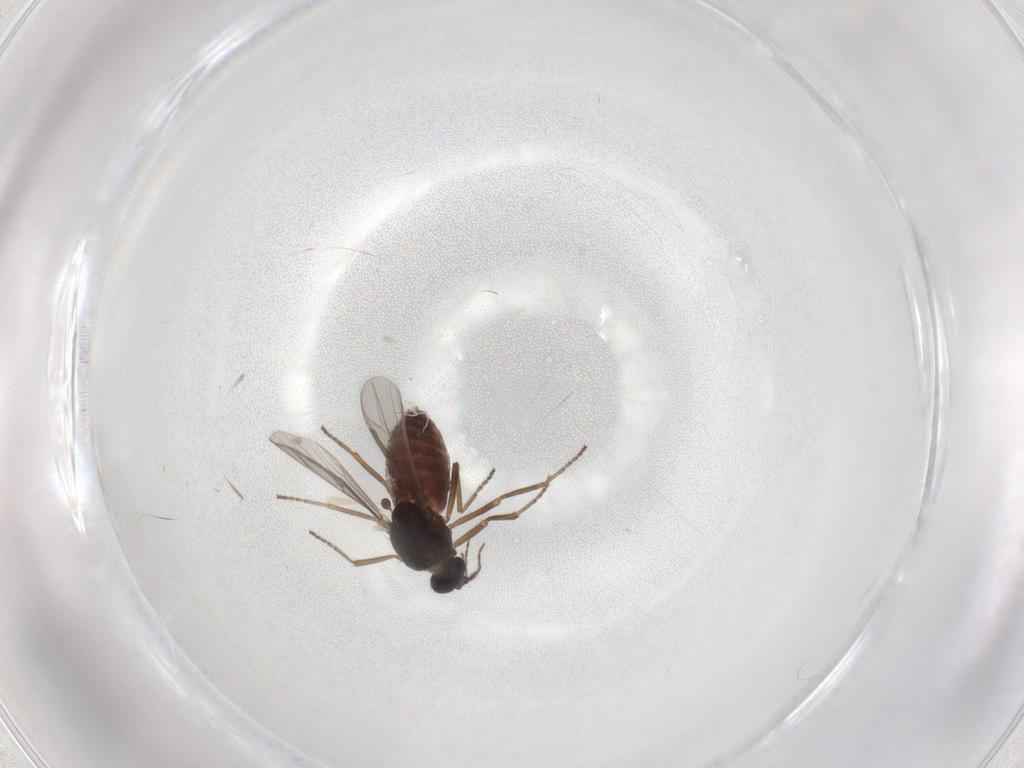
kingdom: Animalia
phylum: Arthropoda
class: Insecta
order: Diptera
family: Ceratopogonidae
